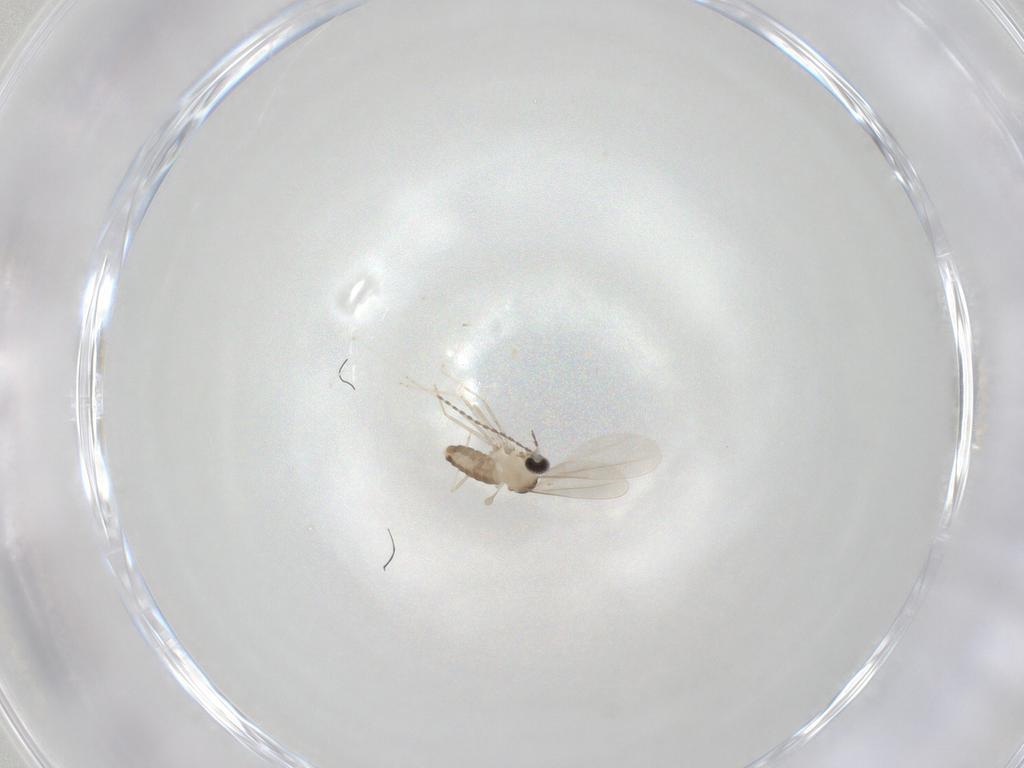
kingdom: Animalia
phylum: Arthropoda
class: Insecta
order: Diptera
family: Cecidomyiidae
